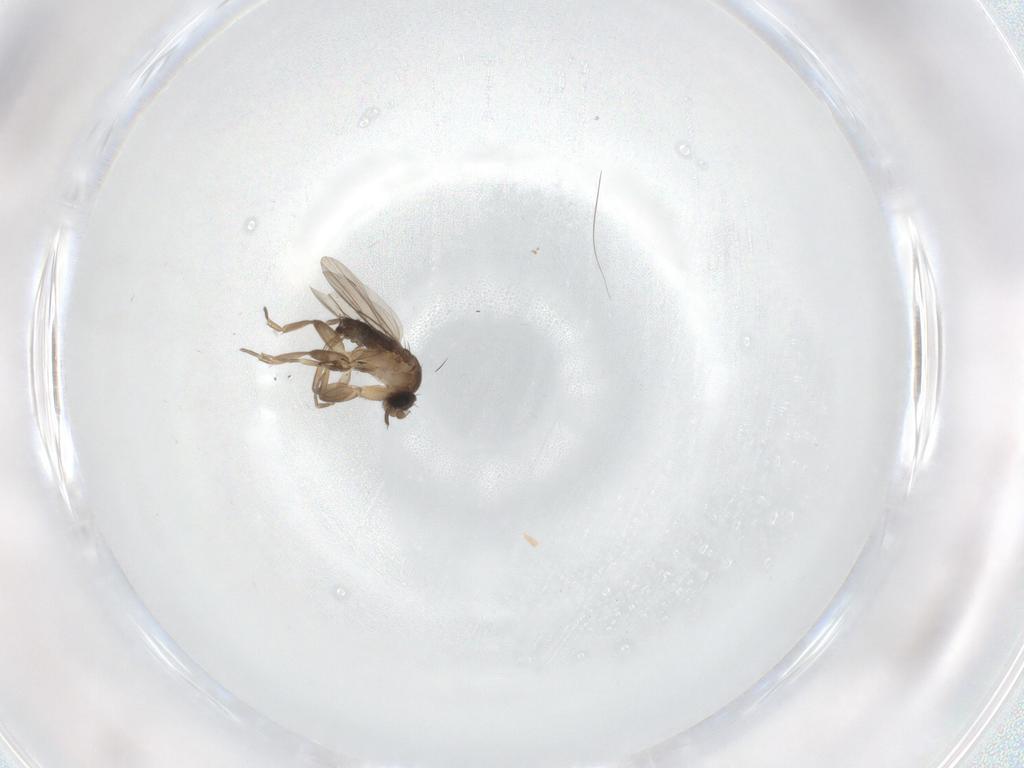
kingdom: Animalia
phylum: Arthropoda
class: Insecta
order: Diptera
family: Phoridae
